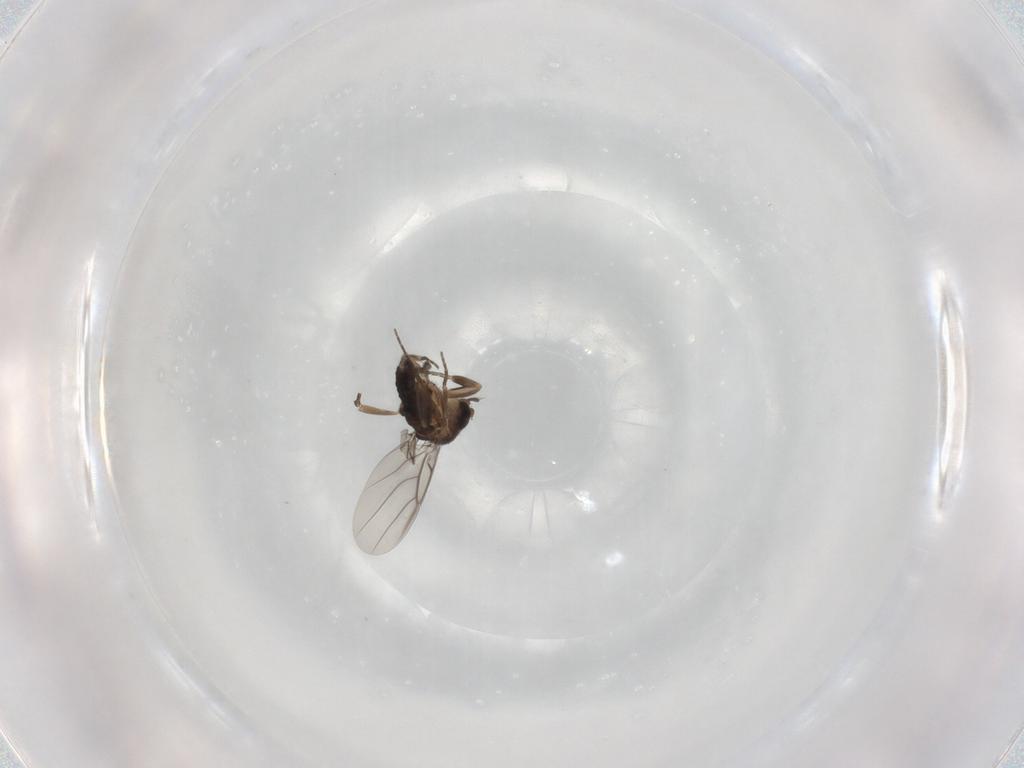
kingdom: Animalia
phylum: Arthropoda
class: Insecta
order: Diptera
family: Phoridae
